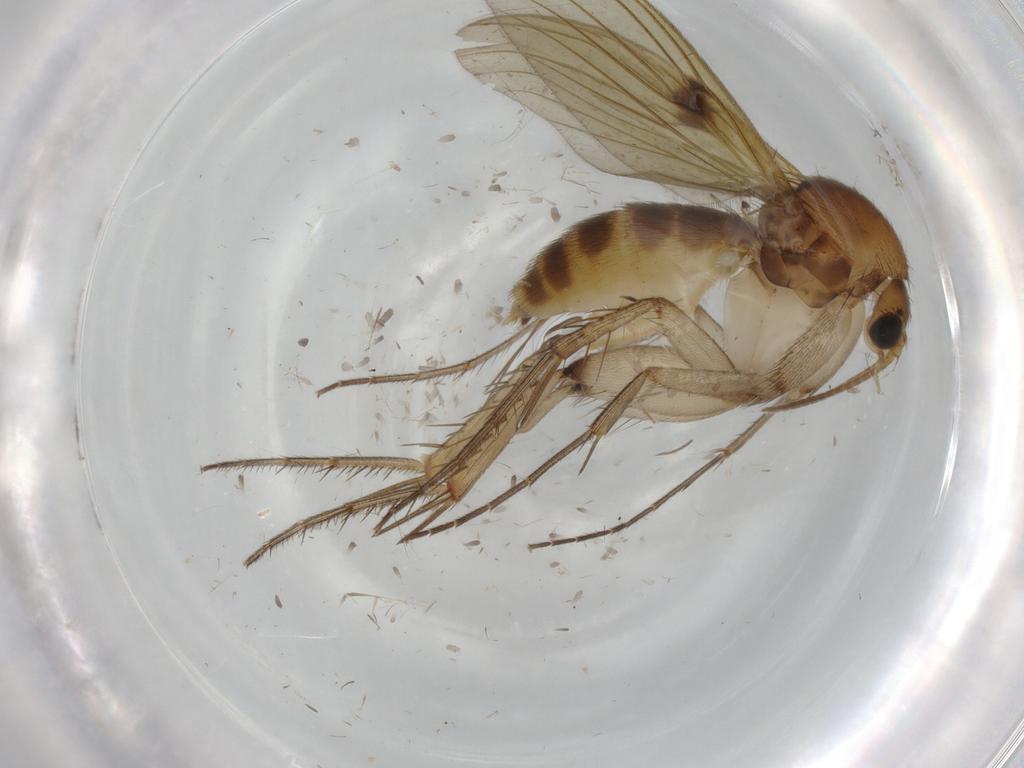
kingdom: Animalia
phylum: Arthropoda
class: Insecta
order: Diptera
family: Cecidomyiidae
